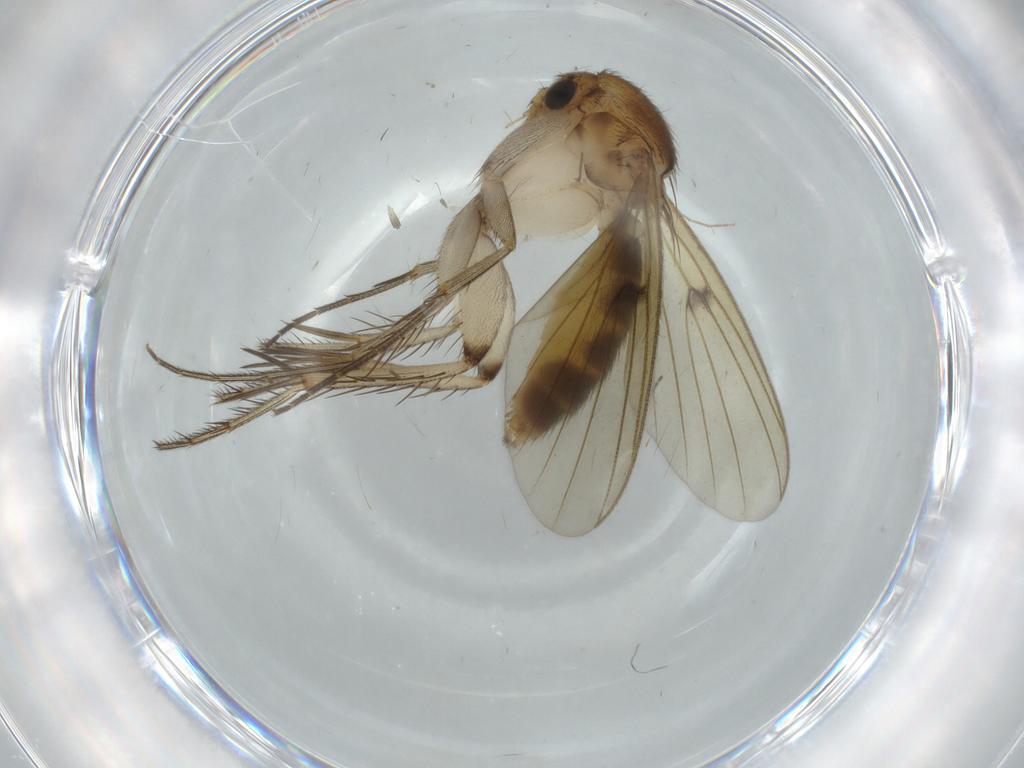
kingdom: Animalia
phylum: Arthropoda
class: Insecta
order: Diptera
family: Mycetophilidae
